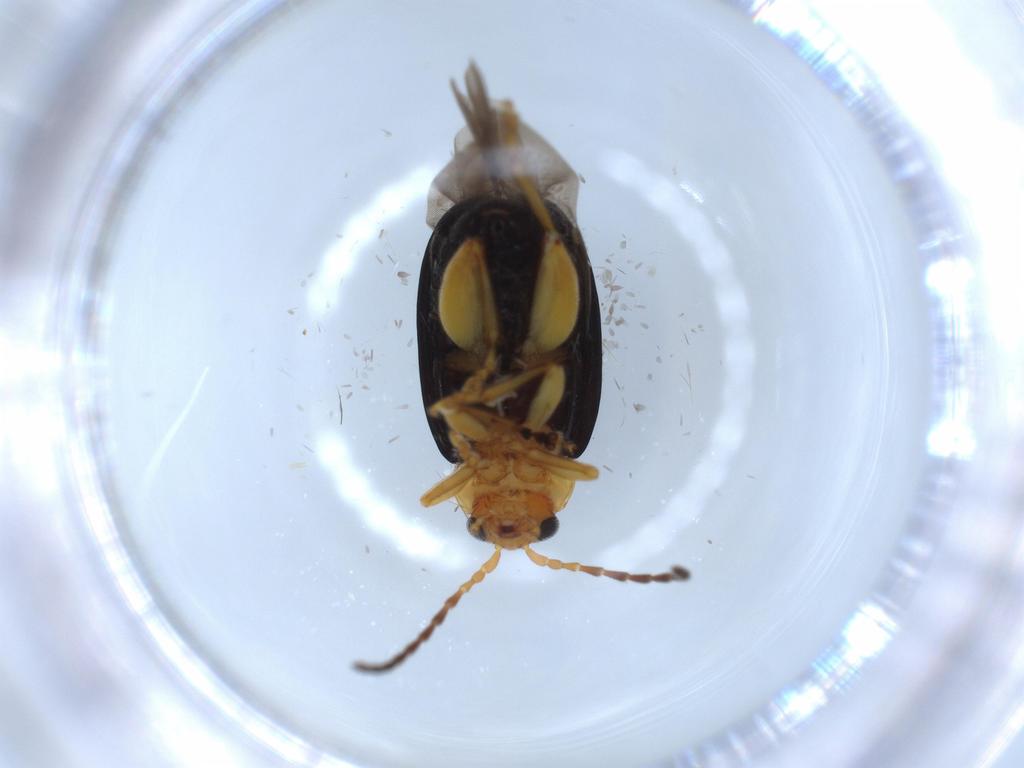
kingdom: Animalia
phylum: Arthropoda
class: Insecta
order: Coleoptera
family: Chrysomelidae
